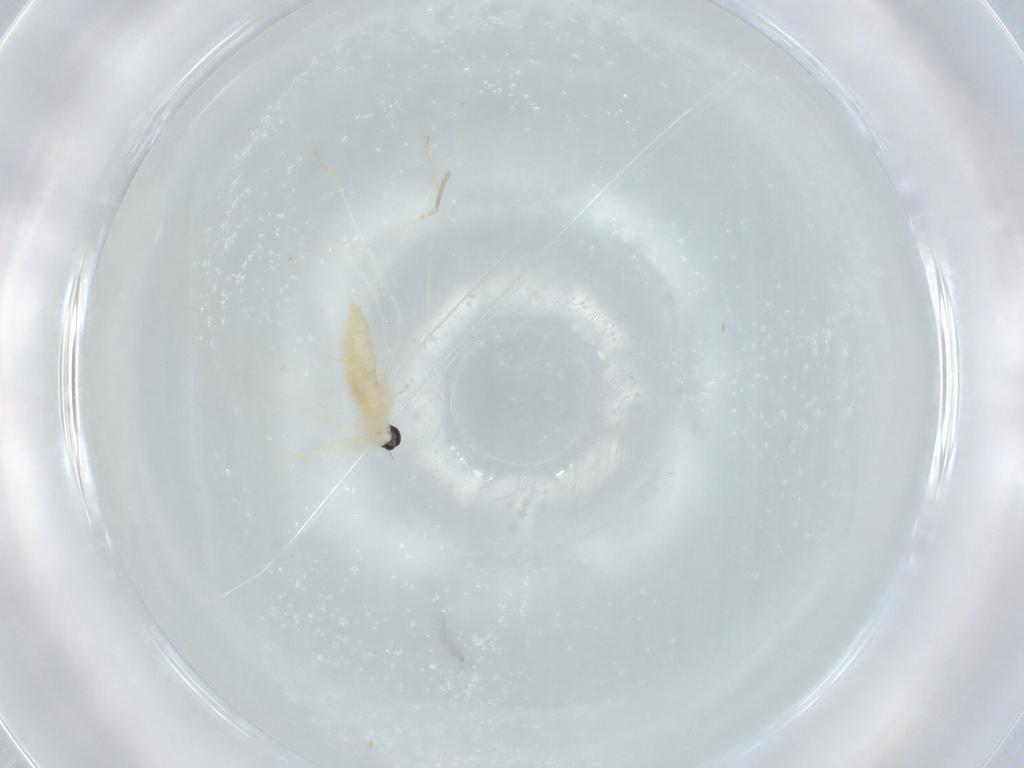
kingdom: Animalia
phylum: Arthropoda
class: Insecta
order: Diptera
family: Cecidomyiidae
